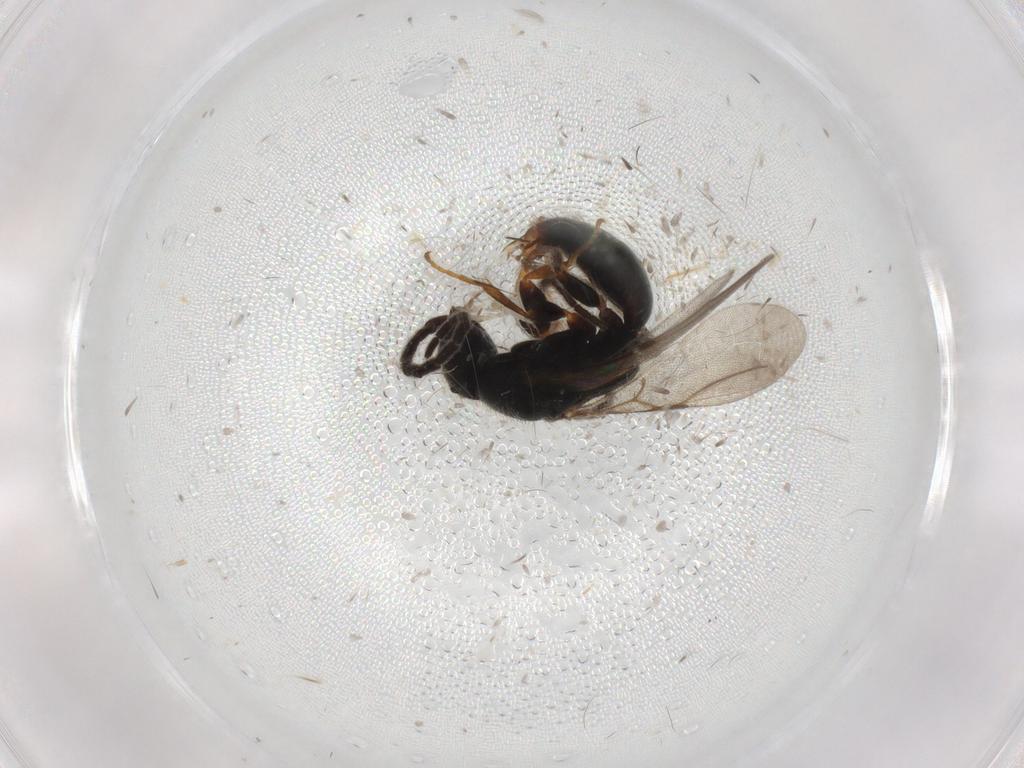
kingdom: Animalia
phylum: Arthropoda
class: Insecta
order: Hymenoptera
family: Bethylidae
